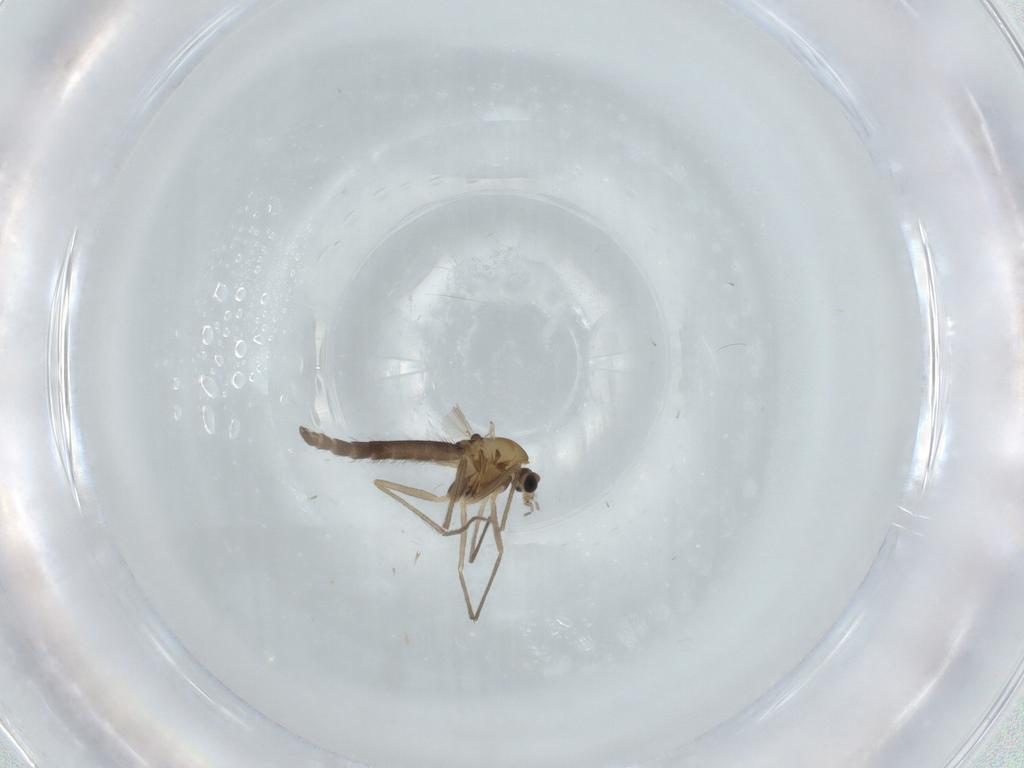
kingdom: Animalia
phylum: Arthropoda
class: Insecta
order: Diptera
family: Chironomidae
